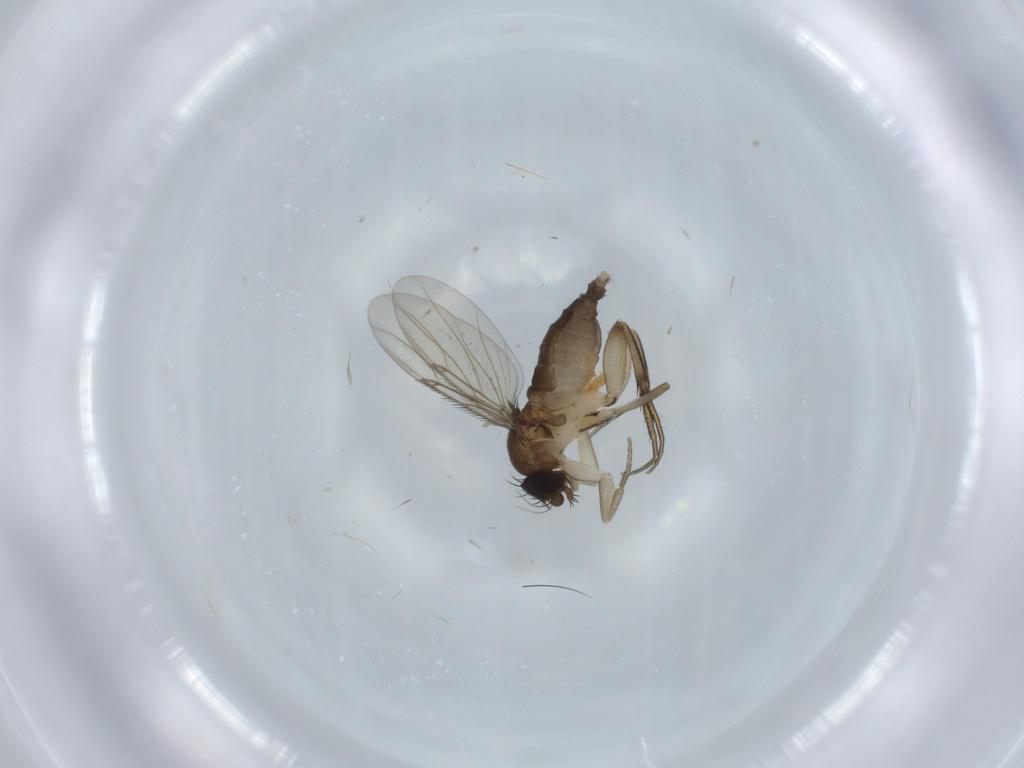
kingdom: Animalia
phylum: Arthropoda
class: Insecta
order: Diptera
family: Phoridae
